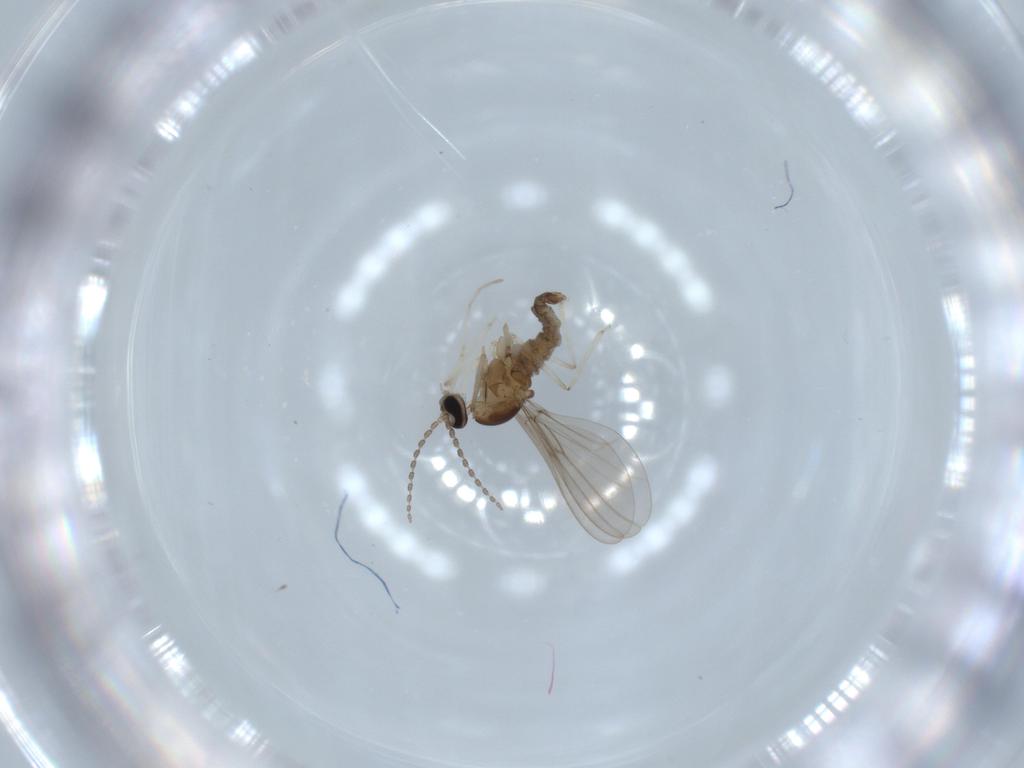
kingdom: Animalia
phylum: Arthropoda
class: Insecta
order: Diptera
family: Cecidomyiidae
